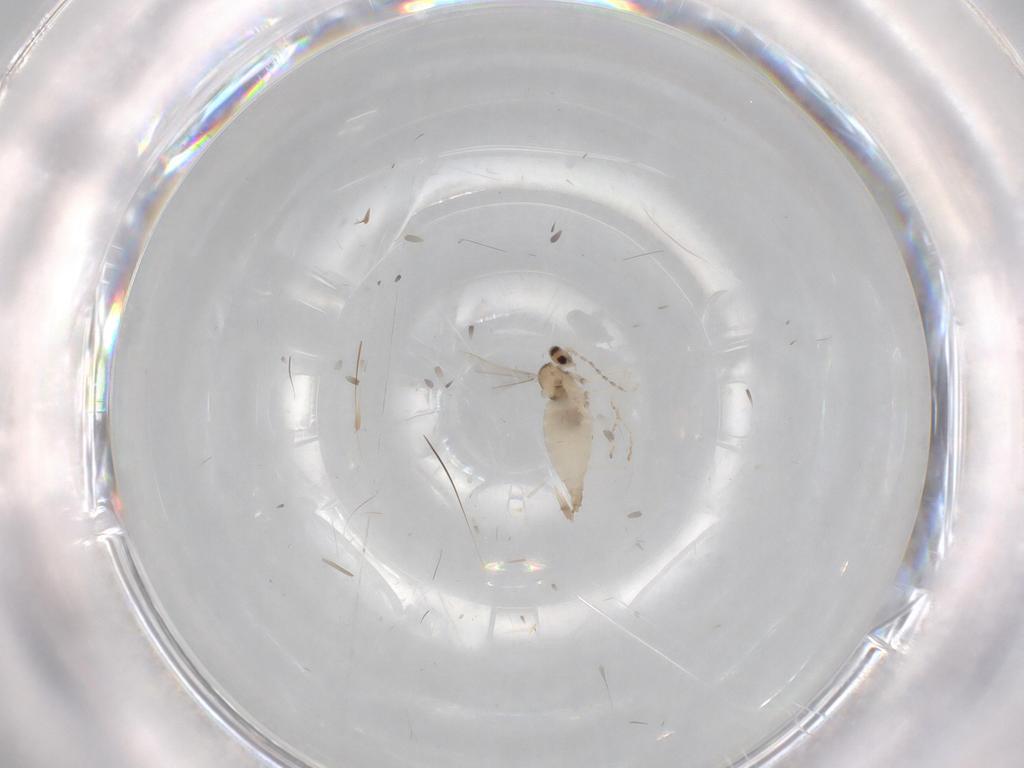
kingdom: Animalia
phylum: Arthropoda
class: Insecta
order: Diptera
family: Cecidomyiidae
